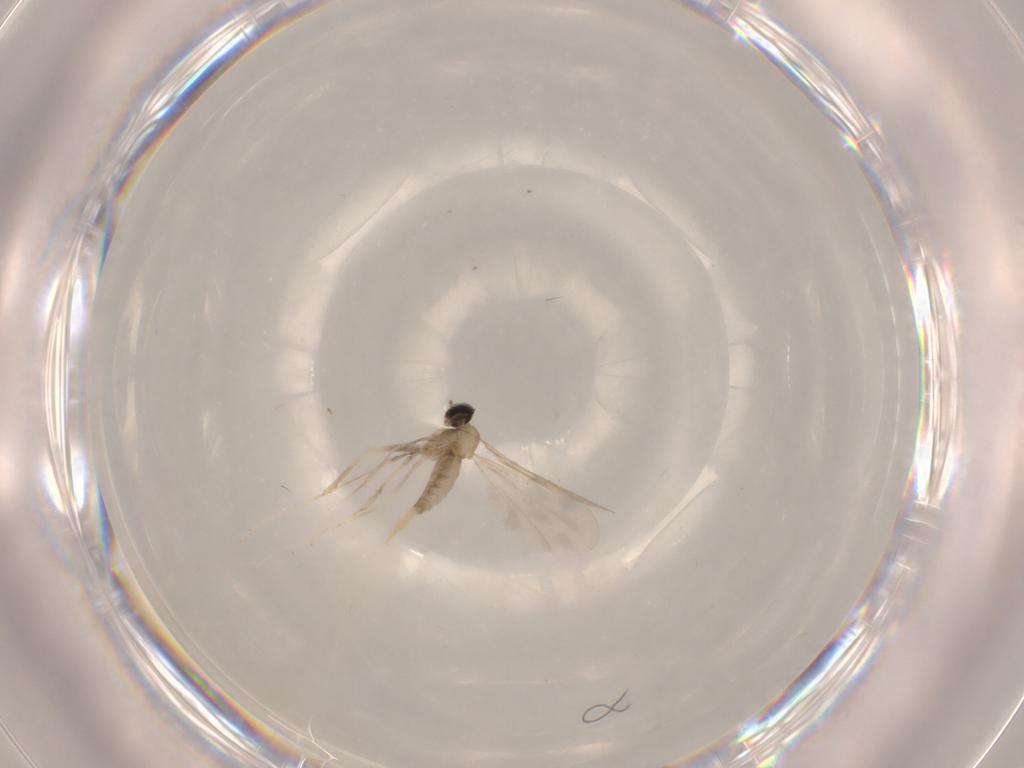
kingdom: Animalia
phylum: Arthropoda
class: Insecta
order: Diptera
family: Cecidomyiidae
